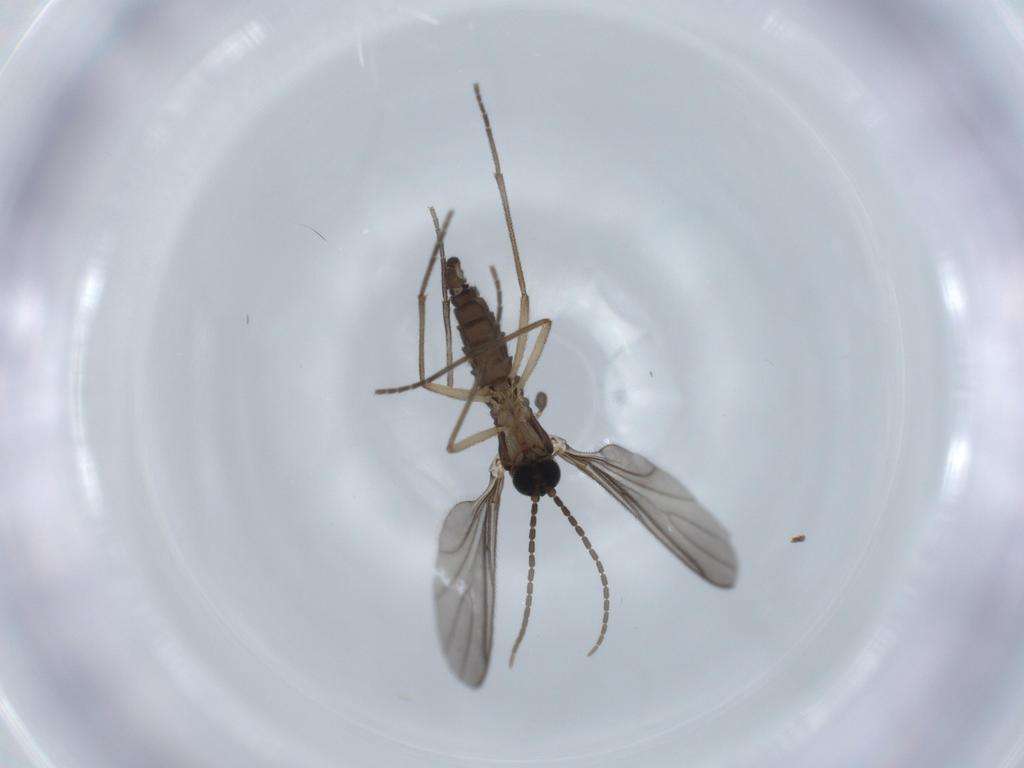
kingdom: Animalia
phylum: Arthropoda
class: Insecta
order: Diptera
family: Sciaridae
